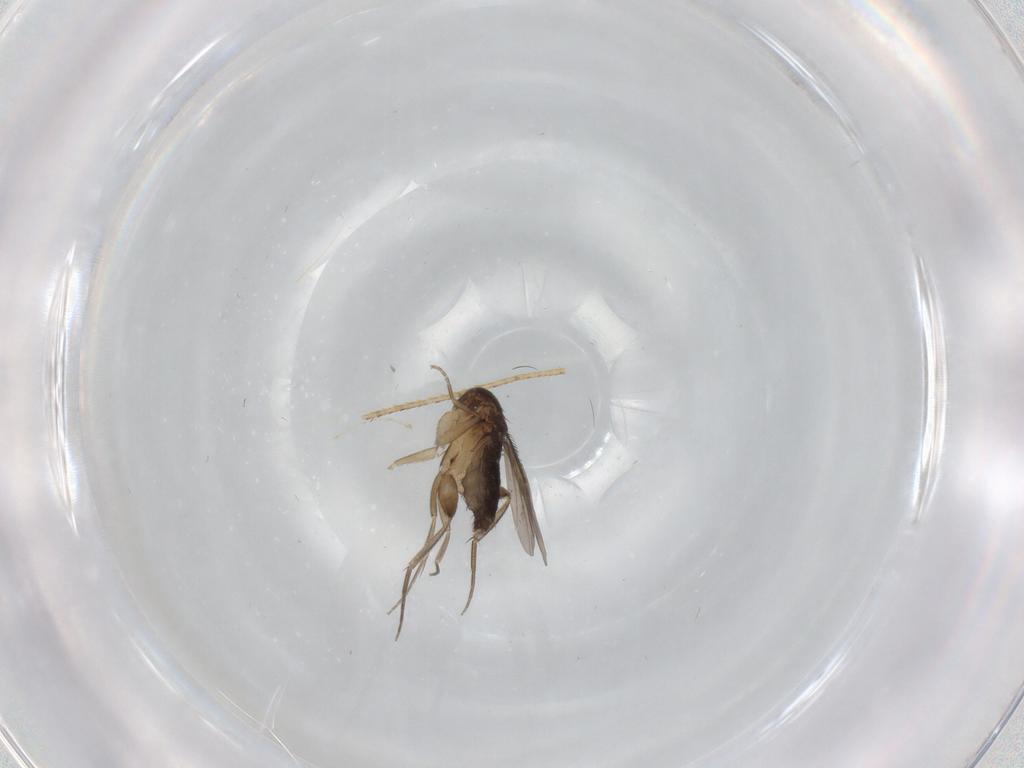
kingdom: Animalia
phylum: Arthropoda
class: Insecta
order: Diptera
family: Phoridae
